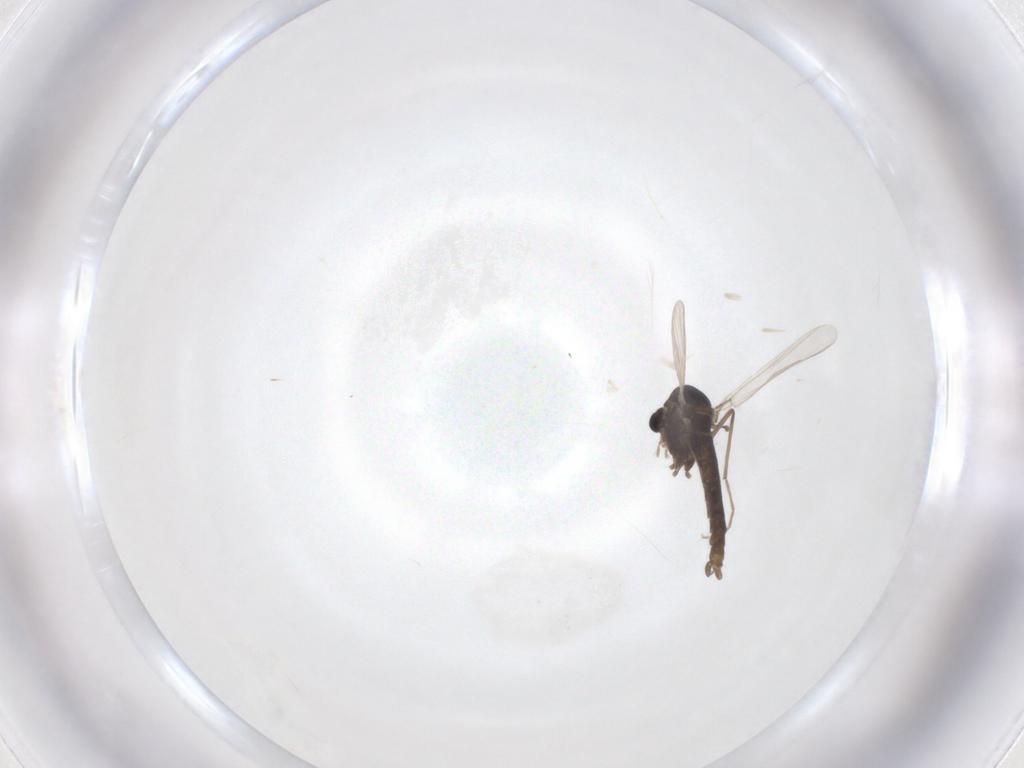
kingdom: Animalia
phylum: Arthropoda
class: Insecta
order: Diptera
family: Chironomidae
